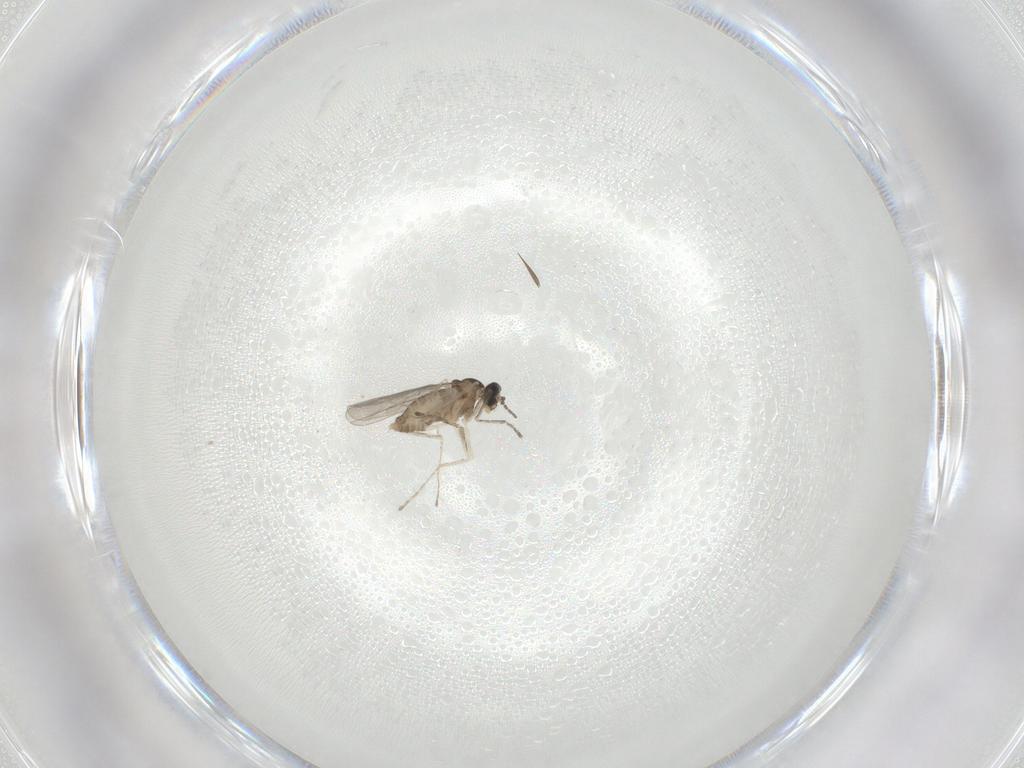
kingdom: Animalia
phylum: Arthropoda
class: Insecta
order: Diptera
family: Cecidomyiidae
